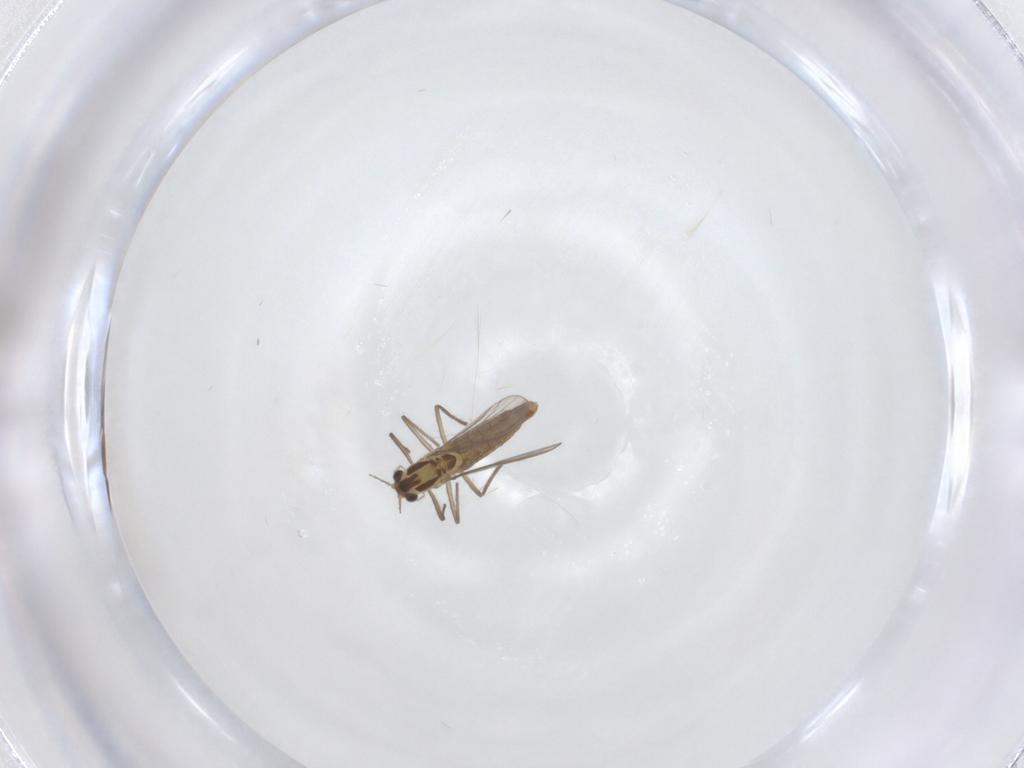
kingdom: Animalia
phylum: Arthropoda
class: Insecta
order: Diptera
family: Chironomidae
